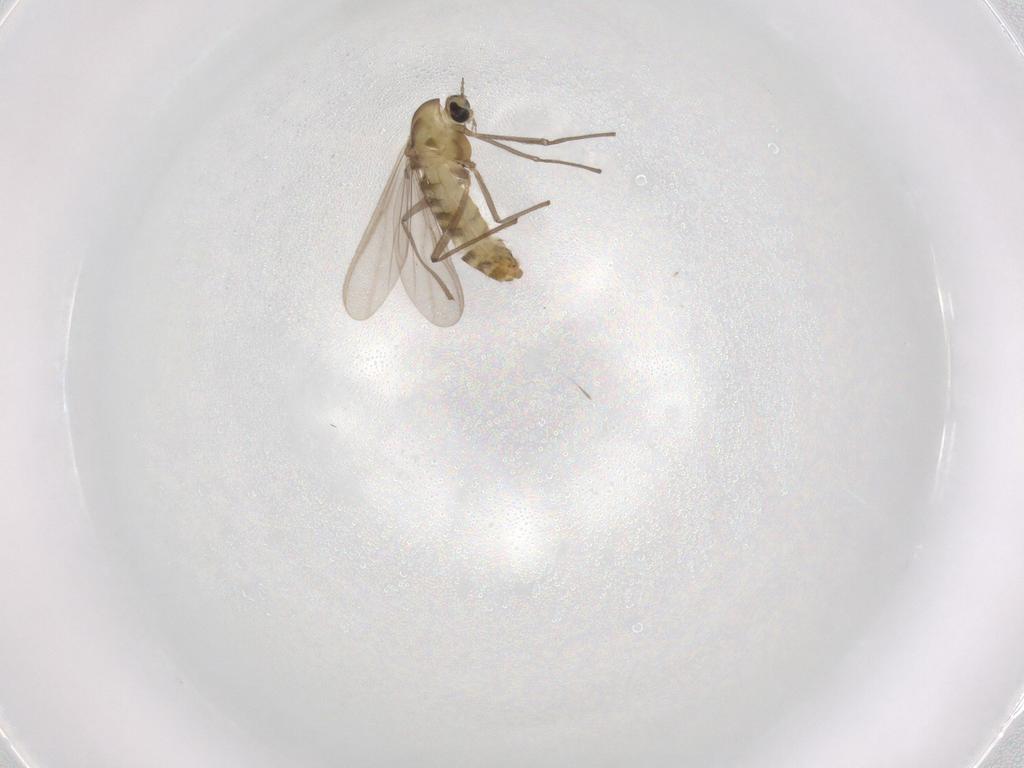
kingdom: Animalia
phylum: Arthropoda
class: Insecta
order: Diptera
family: Chironomidae
